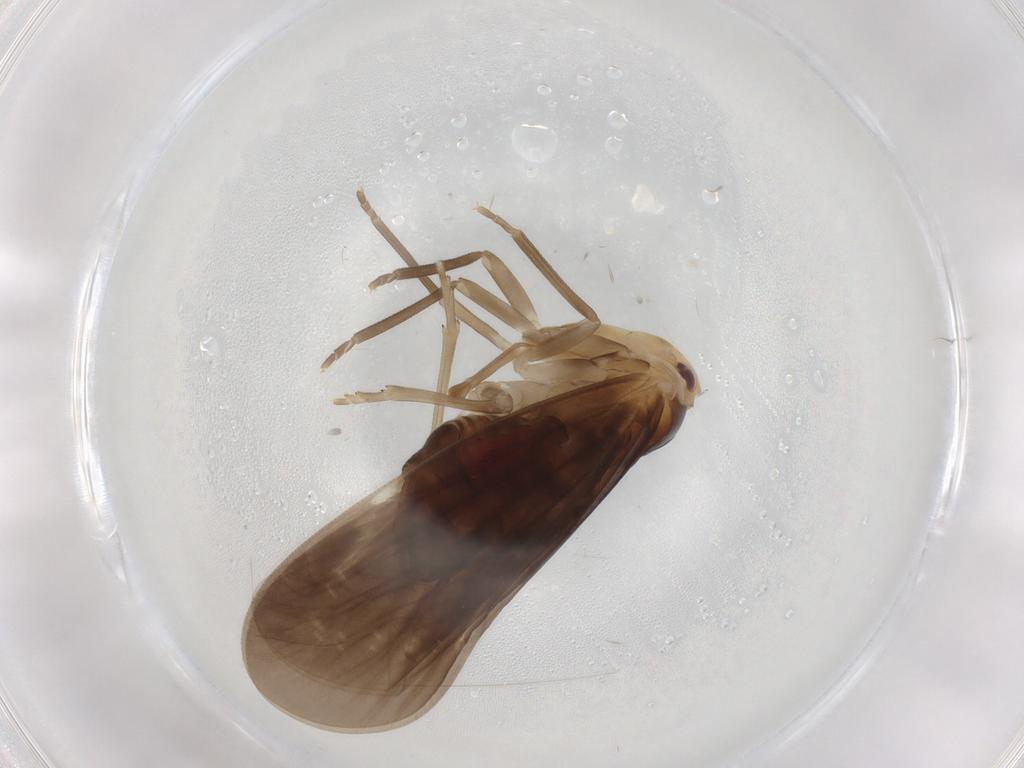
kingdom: Animalia
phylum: Arthropoda
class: Insecta
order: Hemiptera
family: Derbidae
